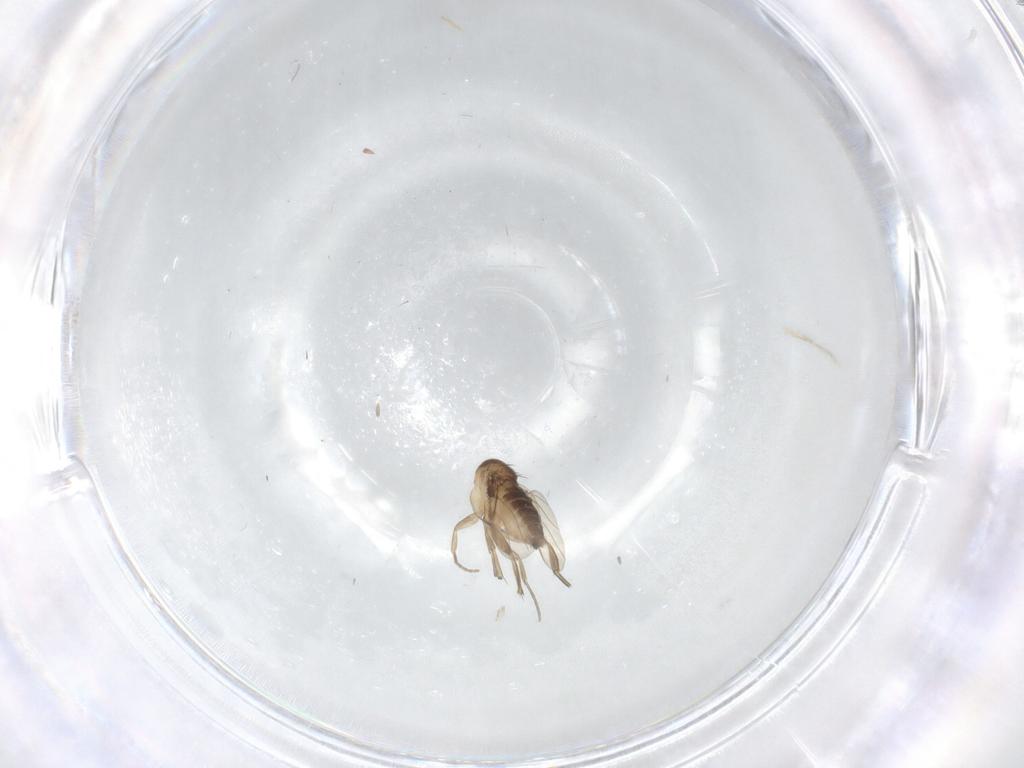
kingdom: Animalia
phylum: Arthropoda
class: Insecta
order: Diptera
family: Phoridae
